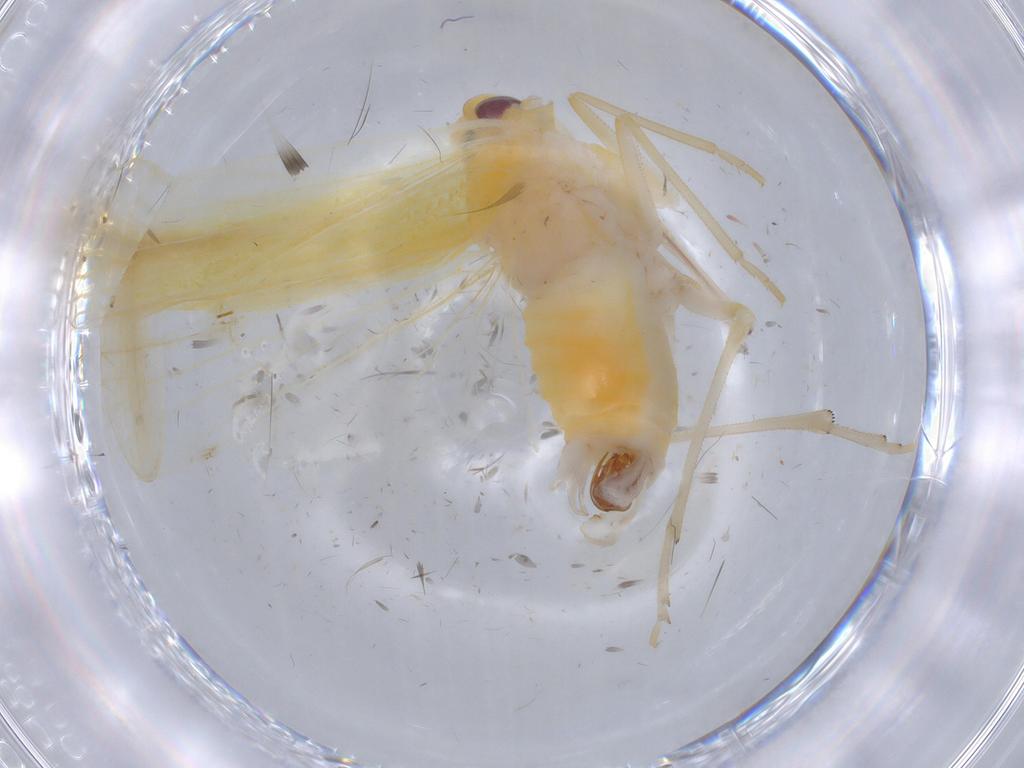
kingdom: Animalia
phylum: Arthropoda
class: Insecta
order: Hemiptera
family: Derbidae
